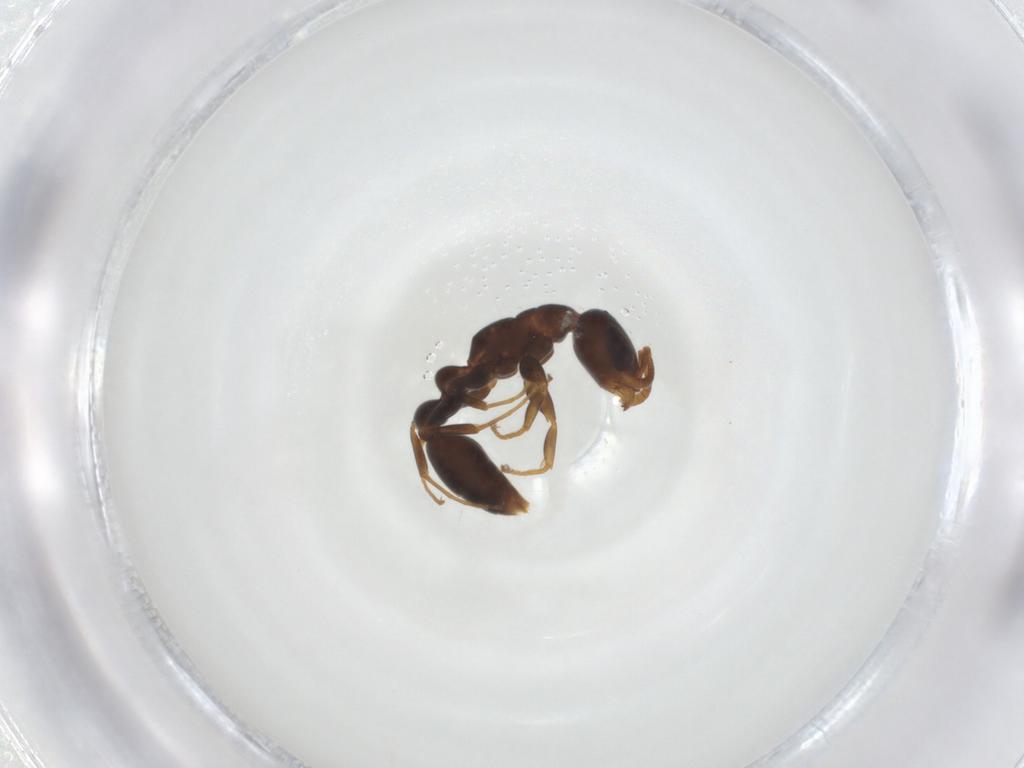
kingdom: Animalia
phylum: Arthropoda
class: Insecta
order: Hymenoptera
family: Formicidae
